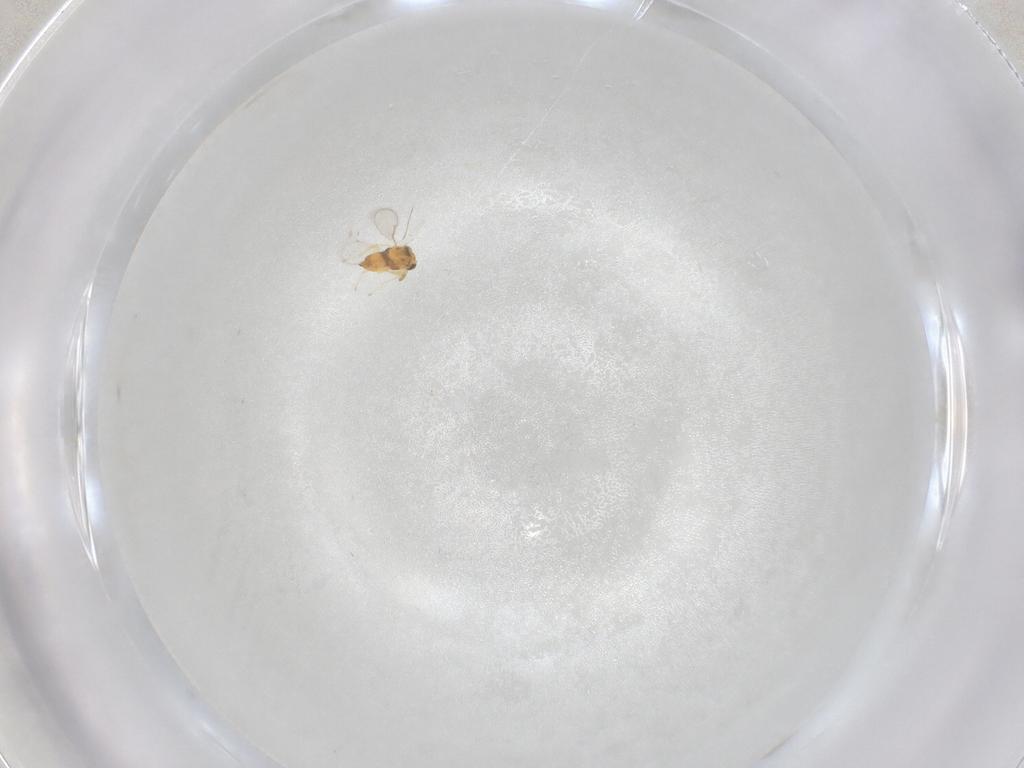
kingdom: Animalia
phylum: Arthropoda
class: Insecta
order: Hymenoptera
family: Aphelinidae
